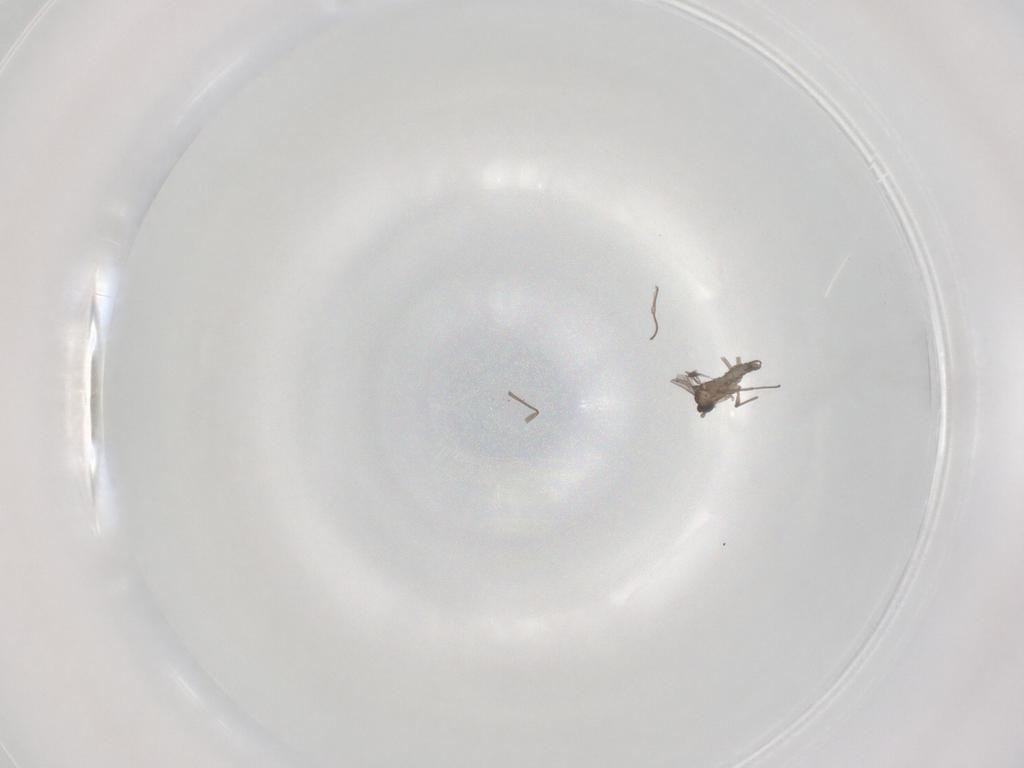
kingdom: Animalia
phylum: Arthropoda
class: Insecta
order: Diptera
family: Sciaridae
